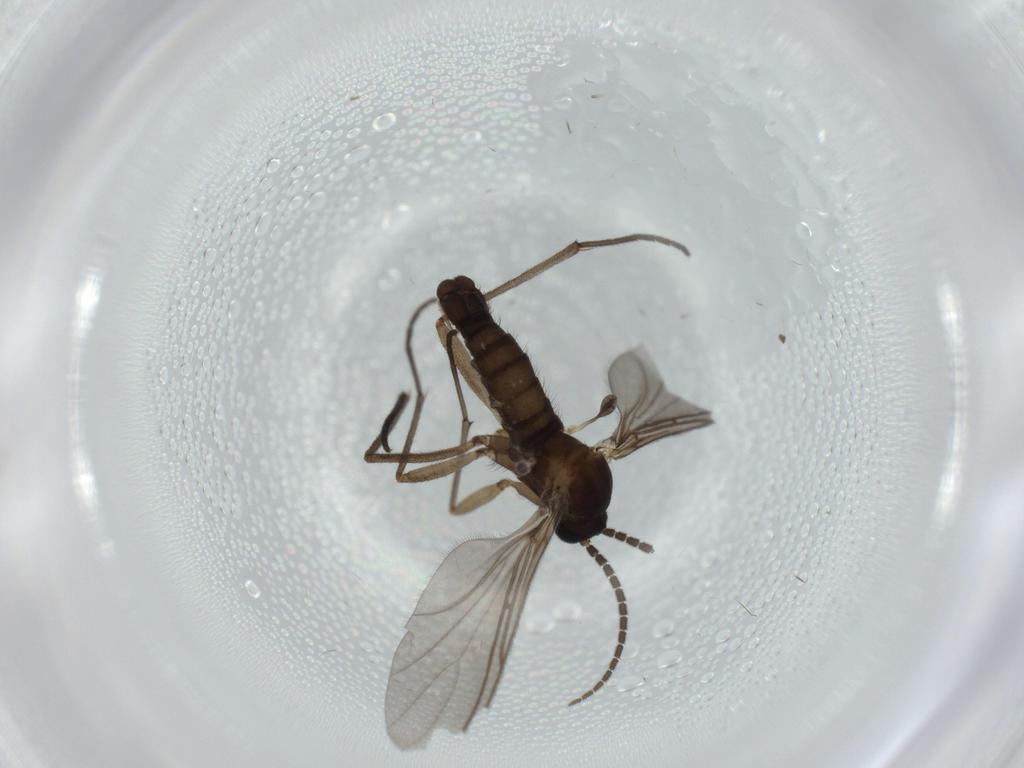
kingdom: Animalia
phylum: Arthropoda
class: Insecta
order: Diptera
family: Sciaridae
